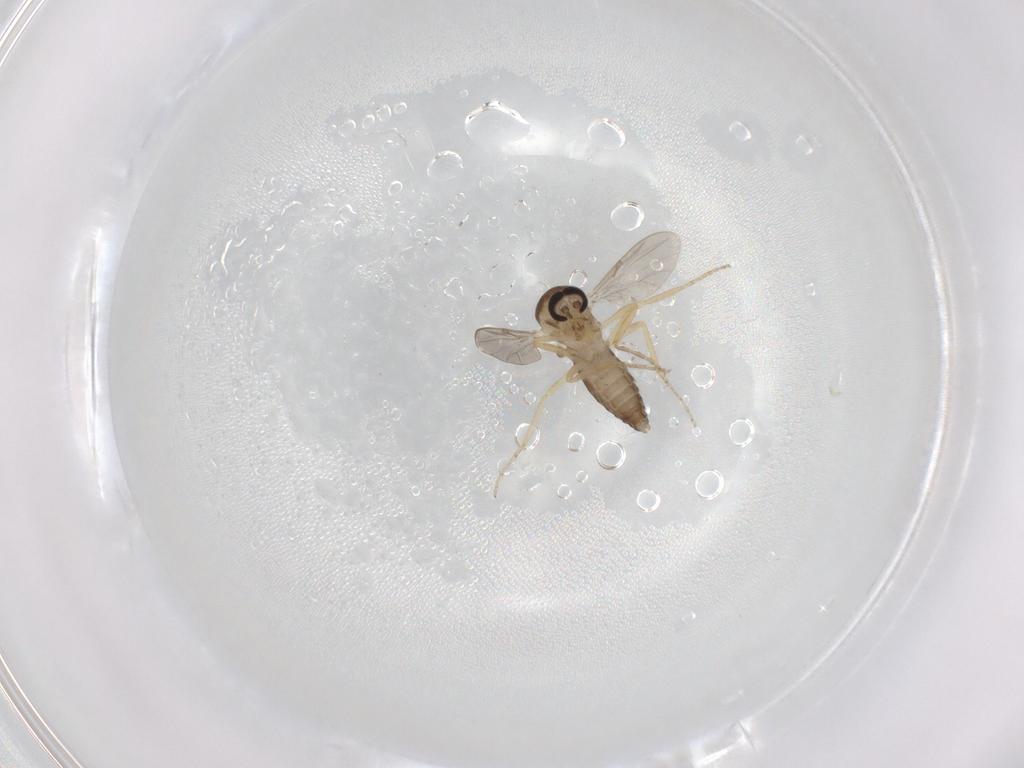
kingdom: Animalia
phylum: Arthropoda
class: Insecta
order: Diptera
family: Ceratopogonidae
